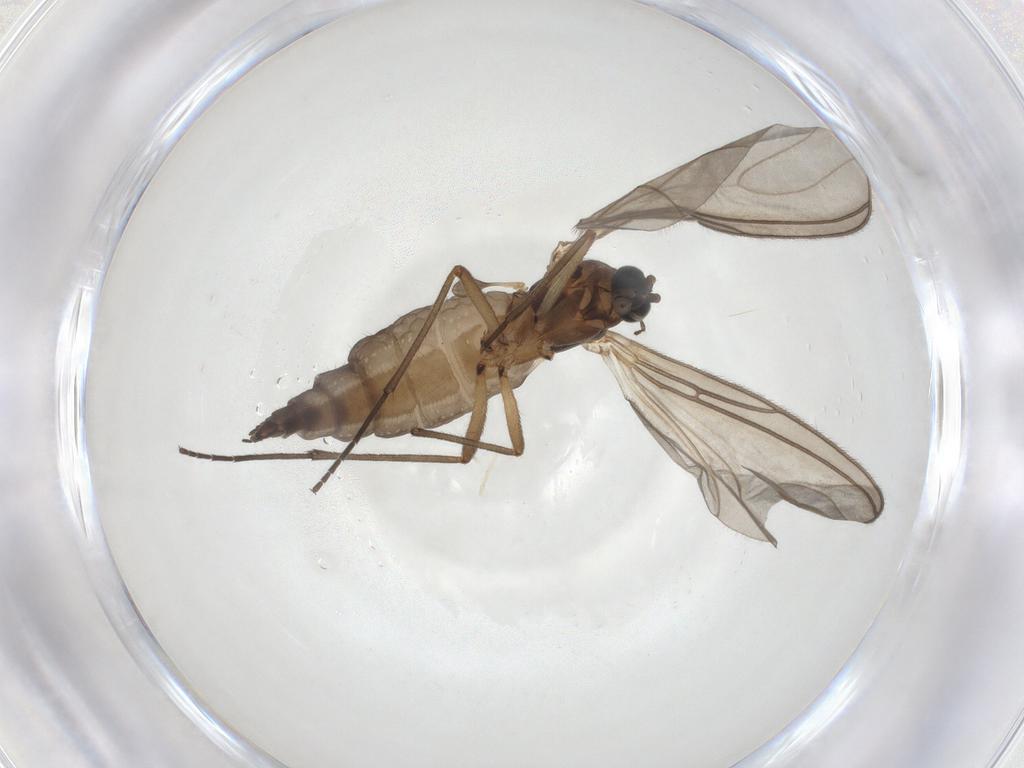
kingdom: Animalia
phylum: Arthropoda
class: Insecta
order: Diptera
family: Sciaridae
